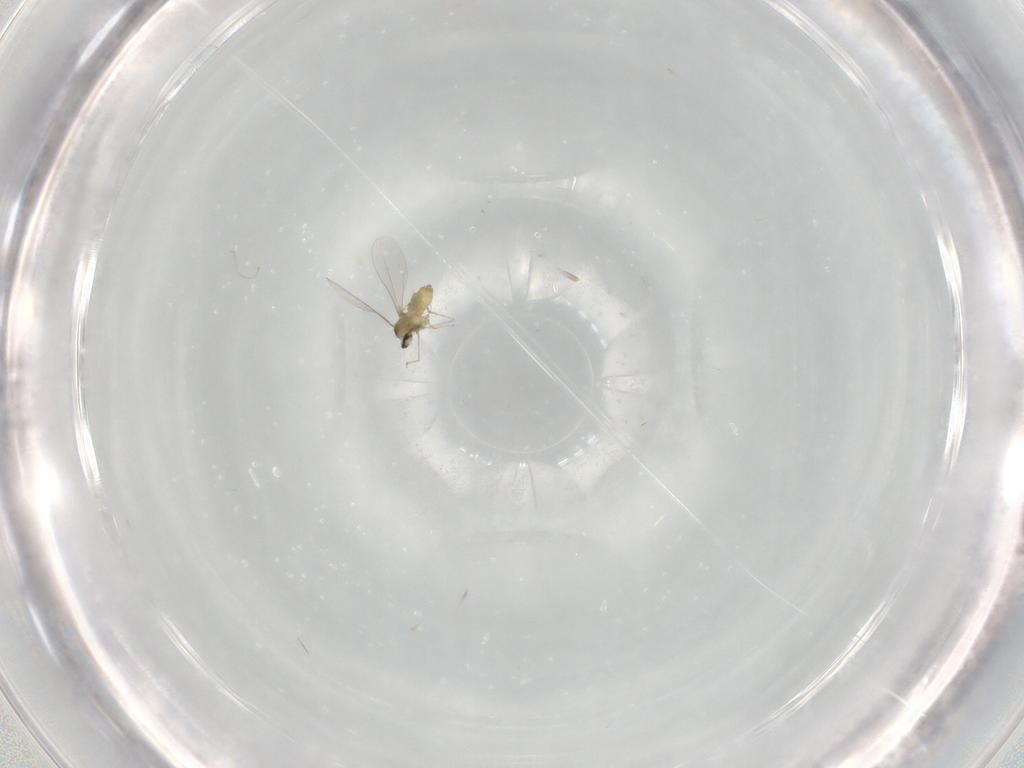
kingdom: Animalia
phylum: Arthropoda
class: Insecta
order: Diptera
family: Cecidomyiidae
